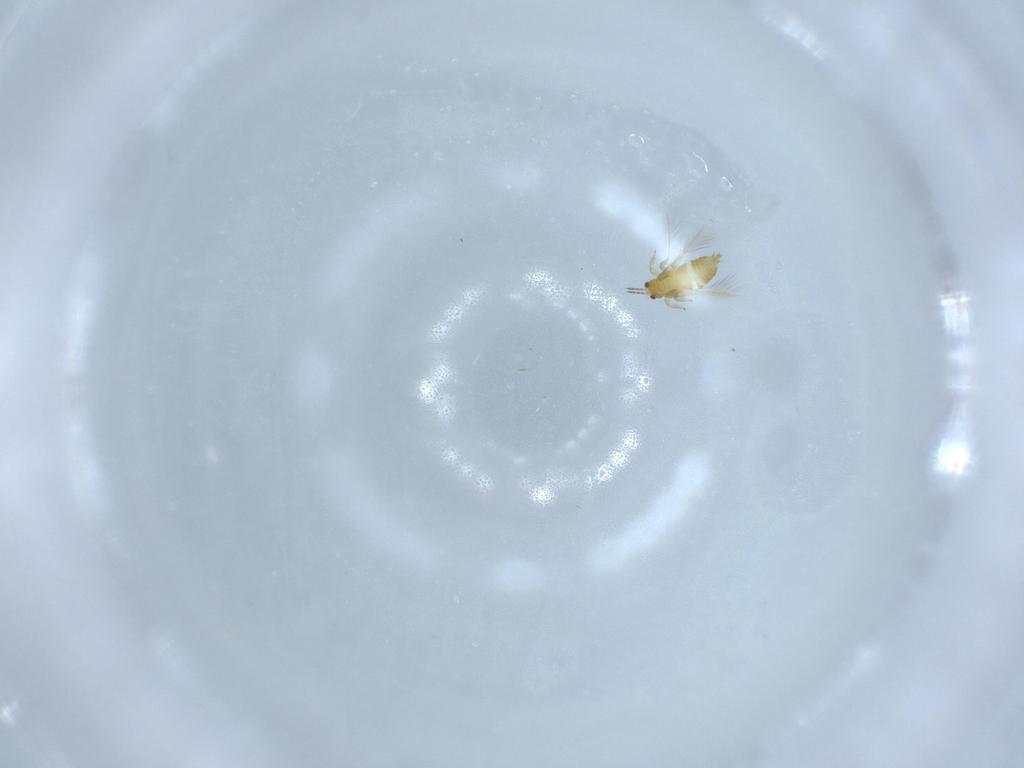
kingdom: Animalia
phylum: Arthropoda
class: Insecta
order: Thysanoptera
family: Thripidae
